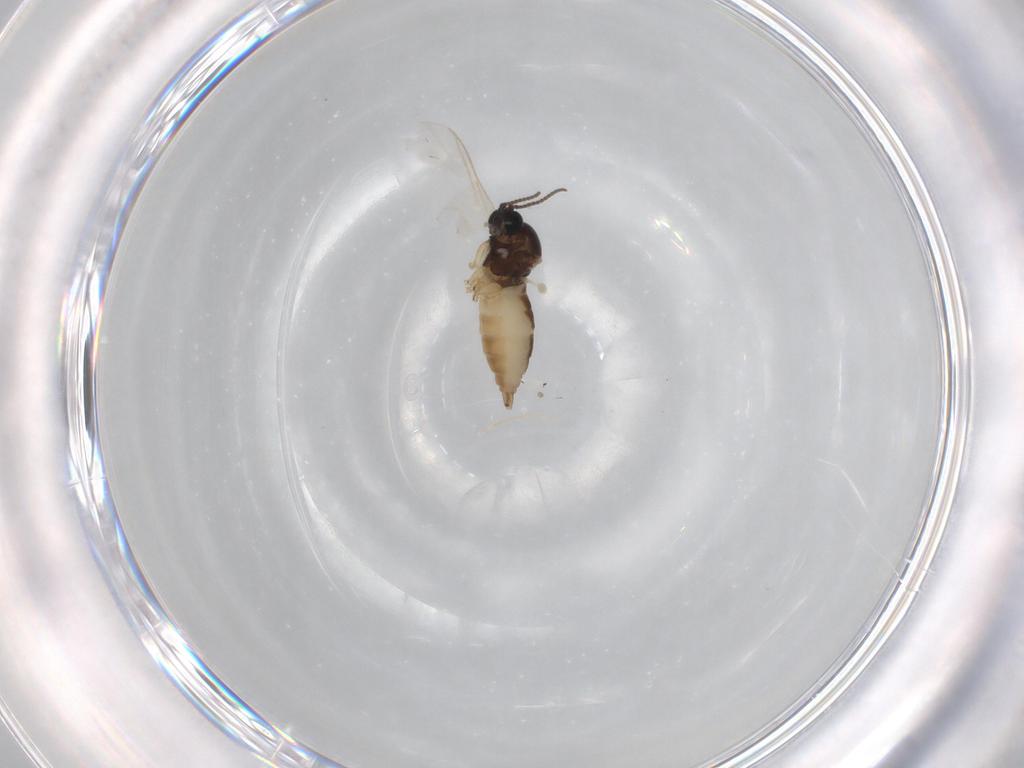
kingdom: Animalia
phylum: Arthropoda
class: Insecta
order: Diptera
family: Sciaridae
